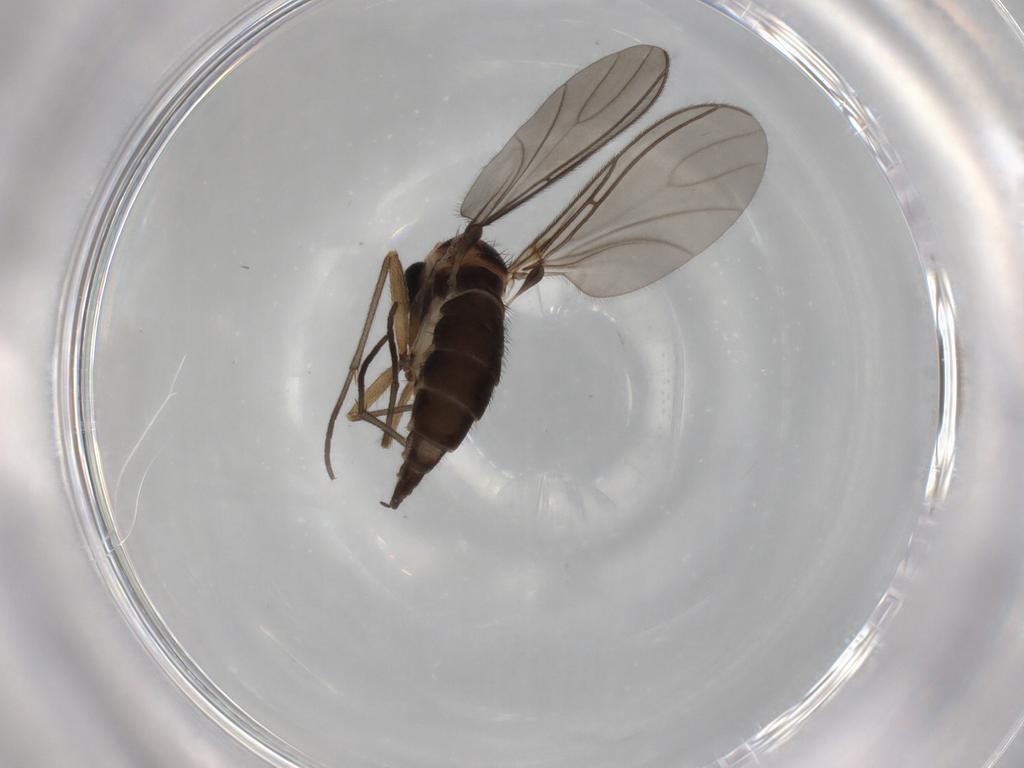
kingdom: Animalia
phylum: Arthropoda
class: Insecta
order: Diptera
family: Sciaridae
